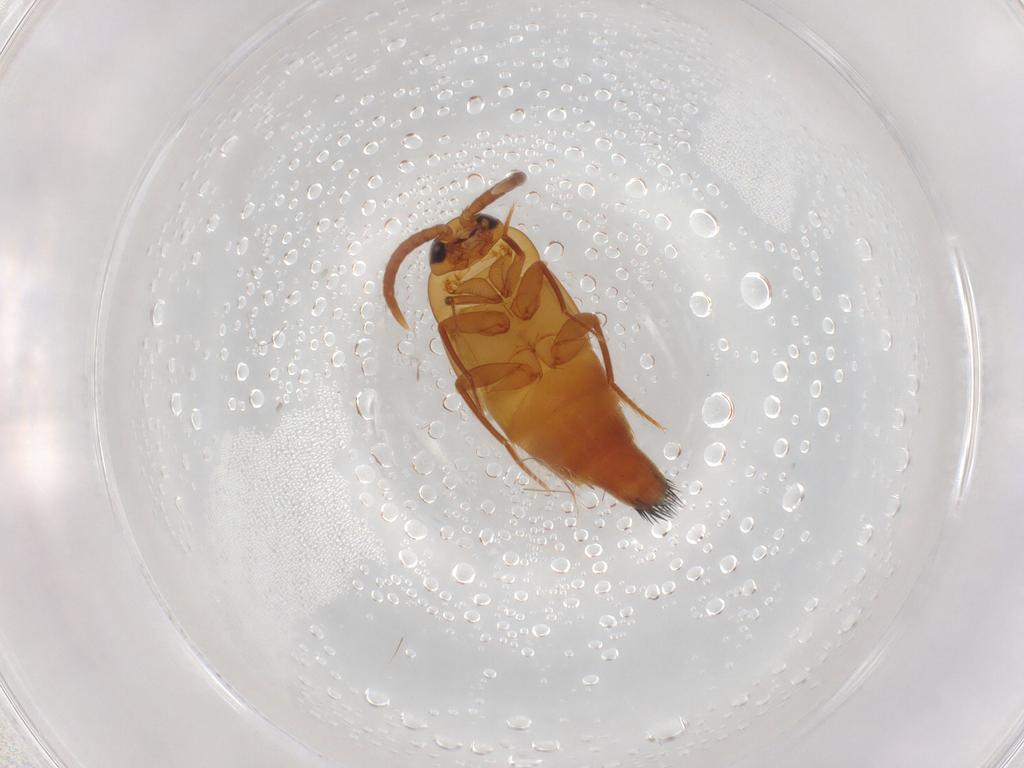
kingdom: Animalia
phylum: Arthropoda
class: Insecta
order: Coleoptera
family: Staphylinidae
